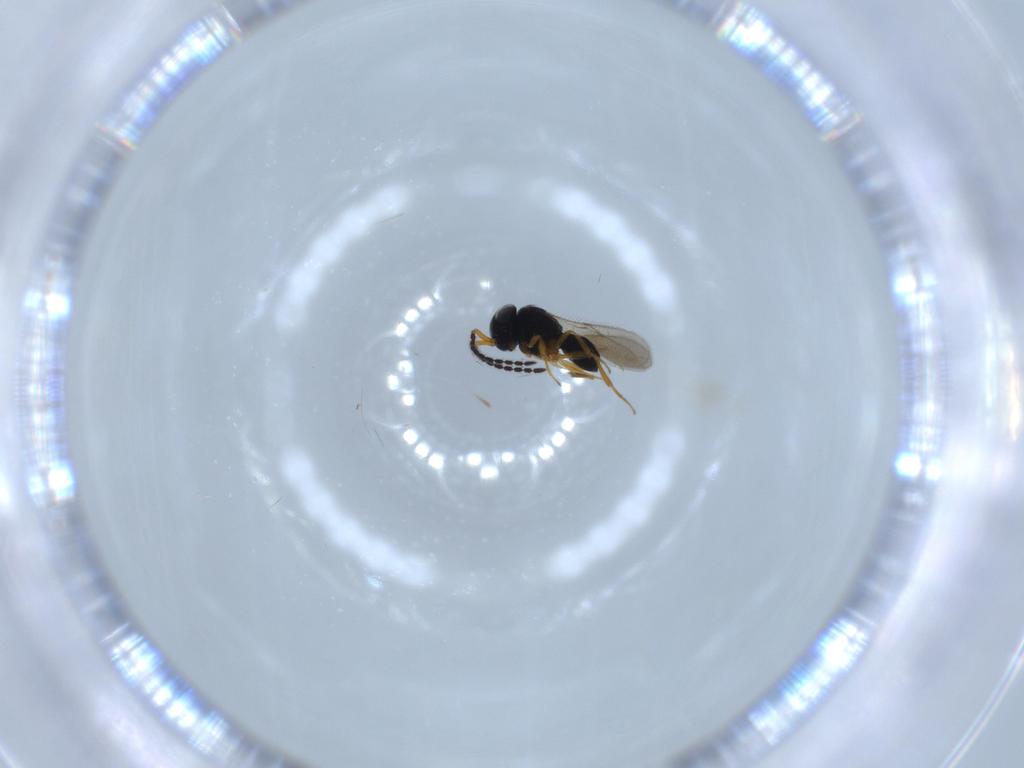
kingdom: Animalia
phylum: Arthropoda
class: Insecta
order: Hymenoptera
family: Scelionidae
